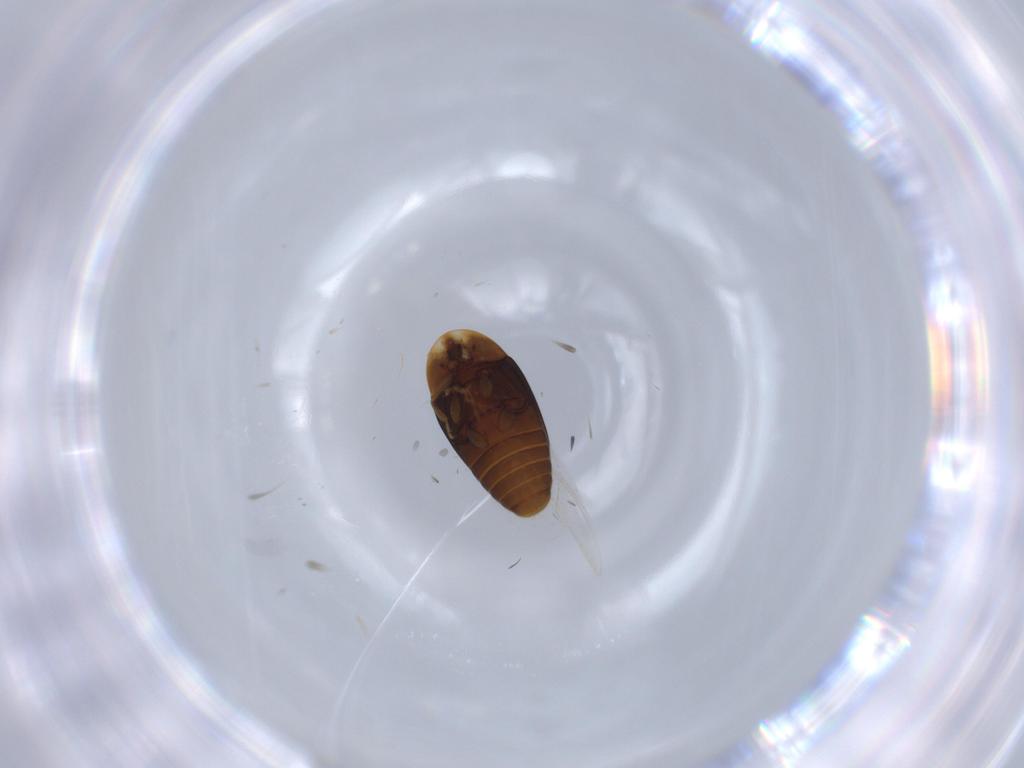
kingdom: Animalia
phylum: Arthropoda
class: Insecta
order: Coleoptera
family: Corylophidae
